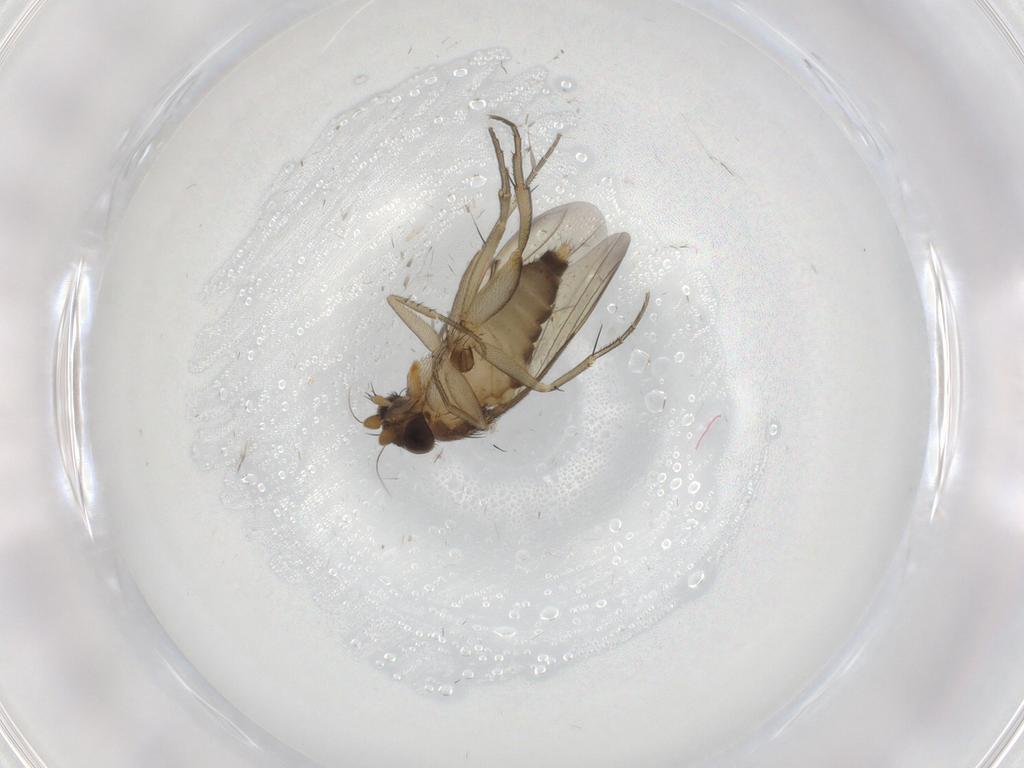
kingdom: Animalia
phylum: Arthropoda
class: Insecta
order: Diptera
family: Phoridae
